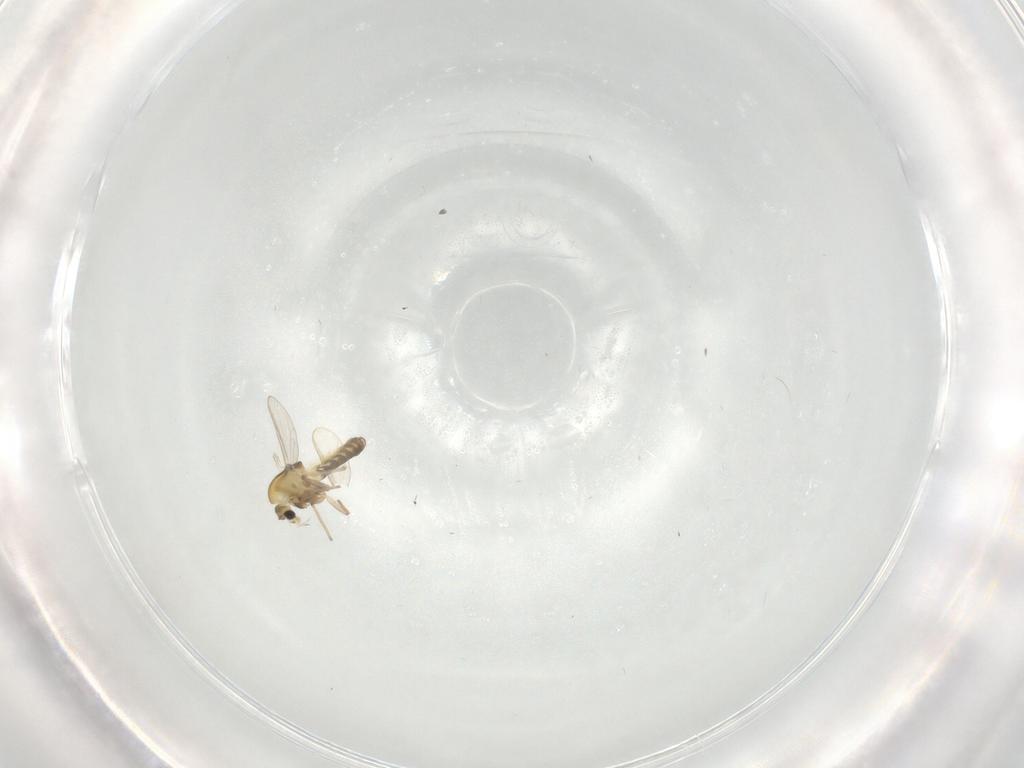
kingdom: Animalia
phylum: Arthropoda
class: Insecta
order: Diptera
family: Chironomidae
